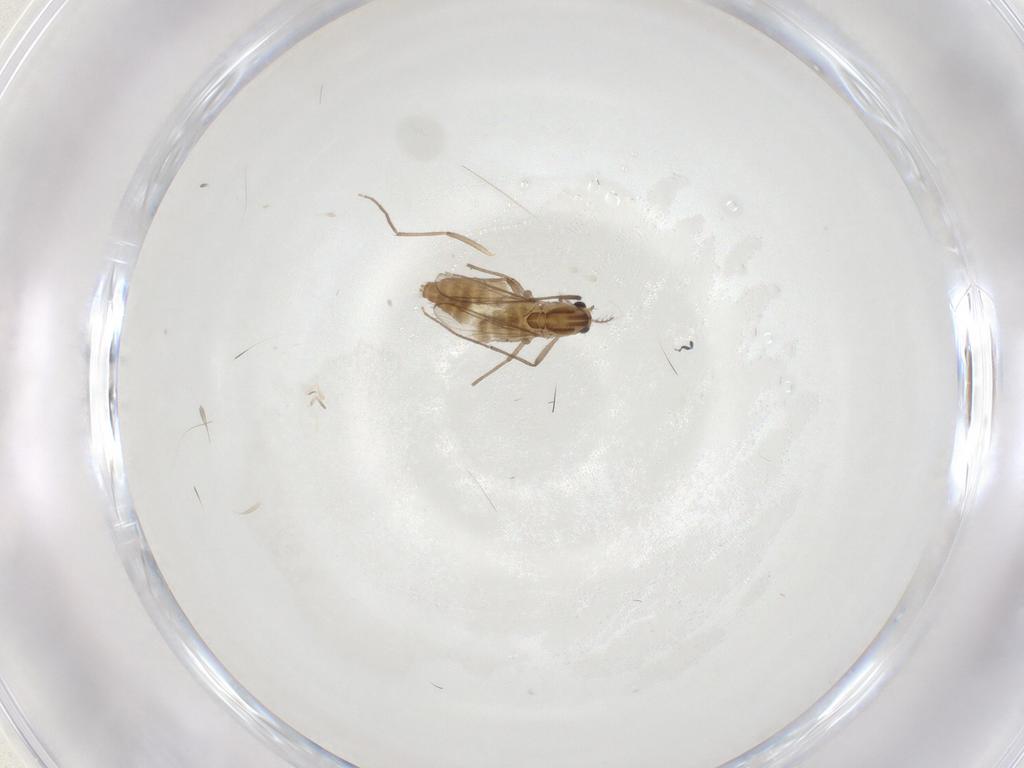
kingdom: Animalia
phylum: Arthropoda
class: Insecta
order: Diptera
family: Chironomidae
